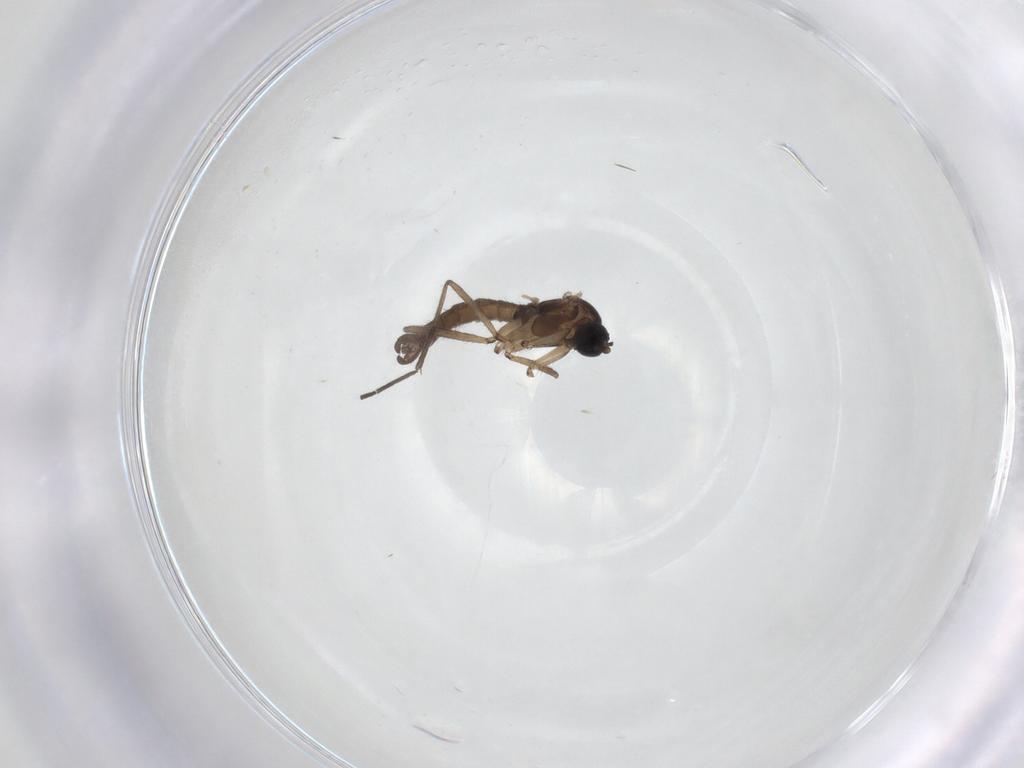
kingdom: Animalia
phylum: Arthropoda
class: Insecta
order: Diptera
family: Sciaridae
